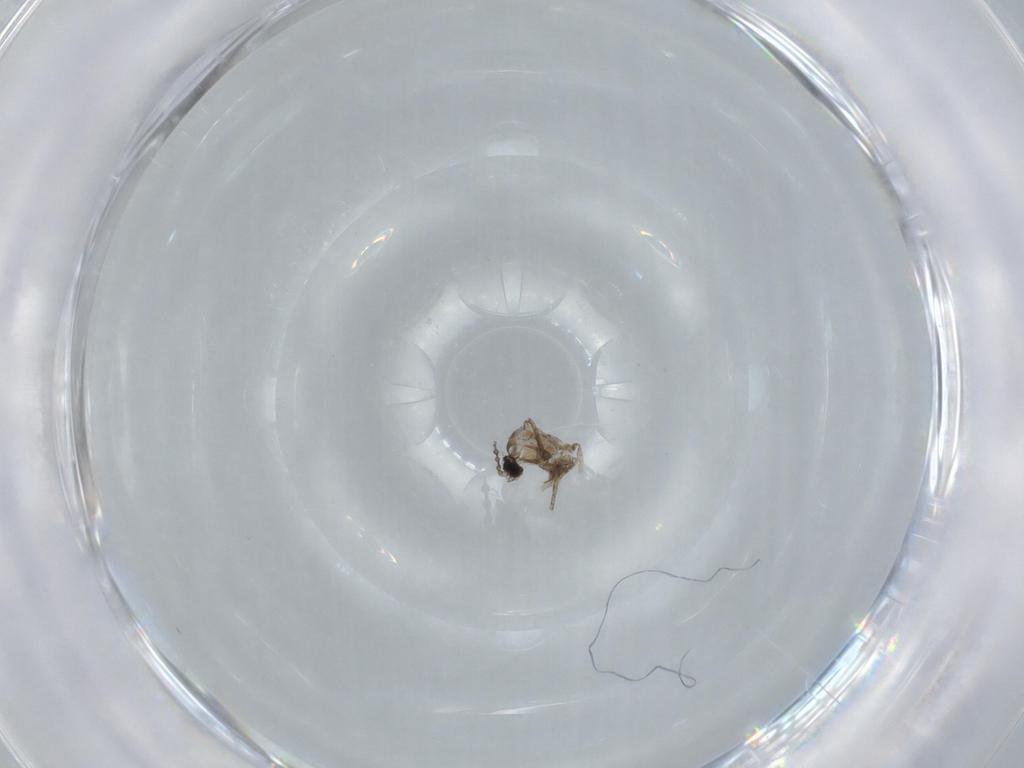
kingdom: Animalia
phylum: Arthropoda
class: Insecta
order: Diptera
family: Cecidomyiidae
